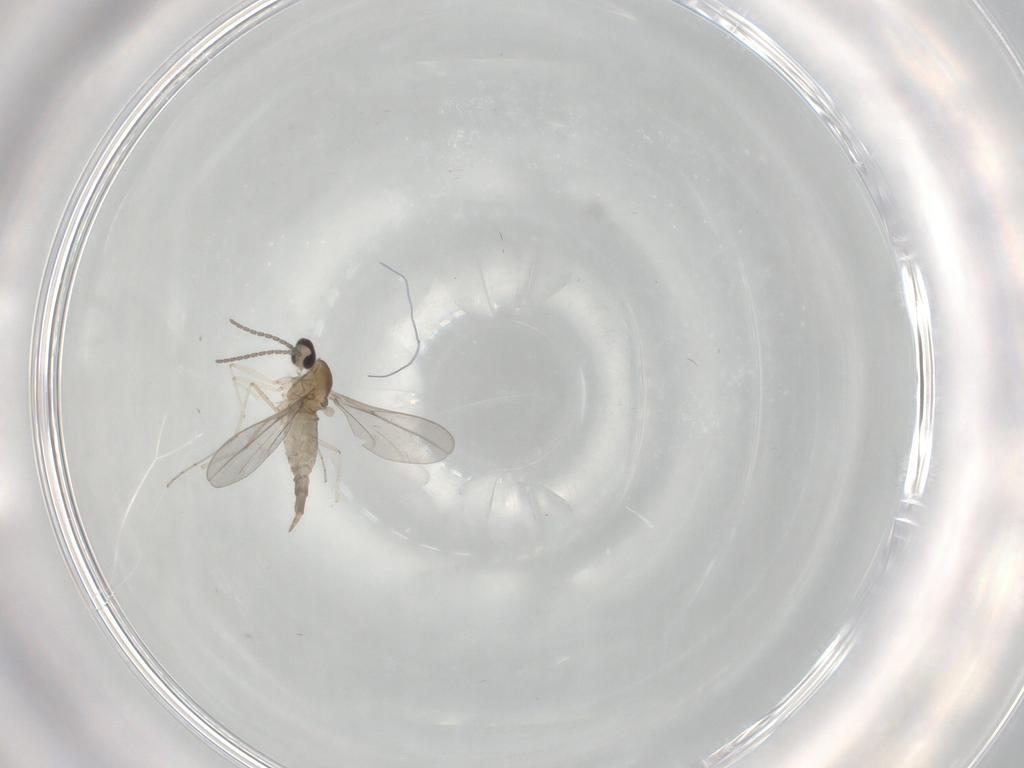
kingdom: Animalia
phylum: Arthropoda
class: Insecta
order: Diptera
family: Cecidomyiidae
